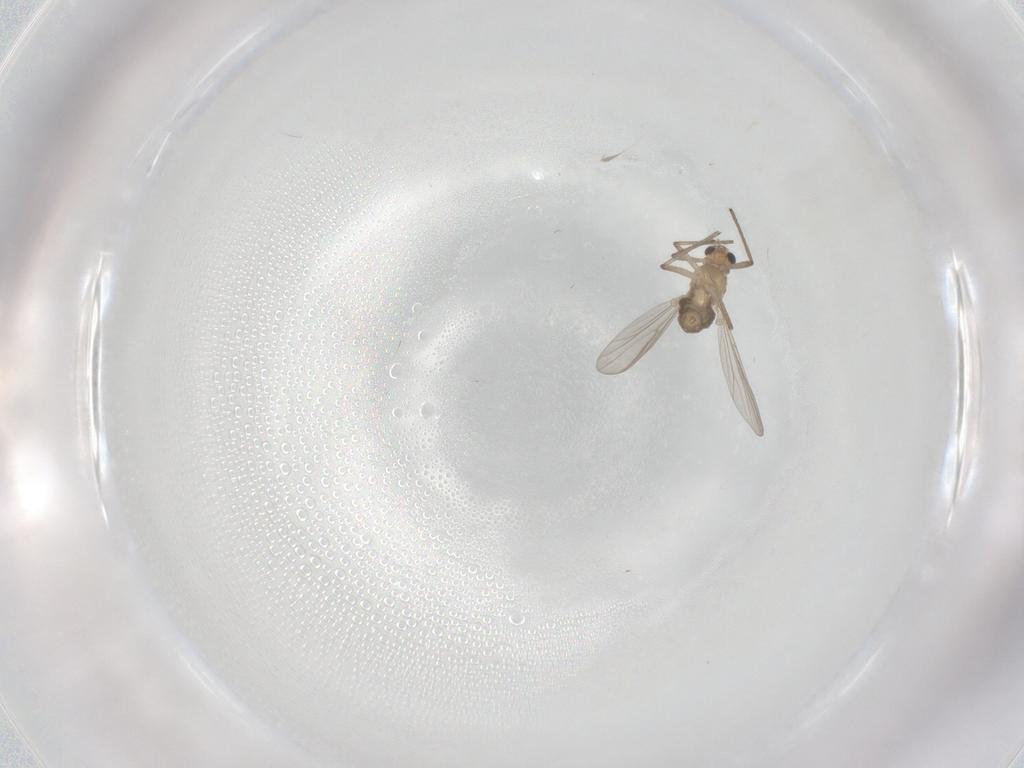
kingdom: Animalia
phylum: Arthropoda
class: Insecta
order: Diptera
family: Chironomidae
